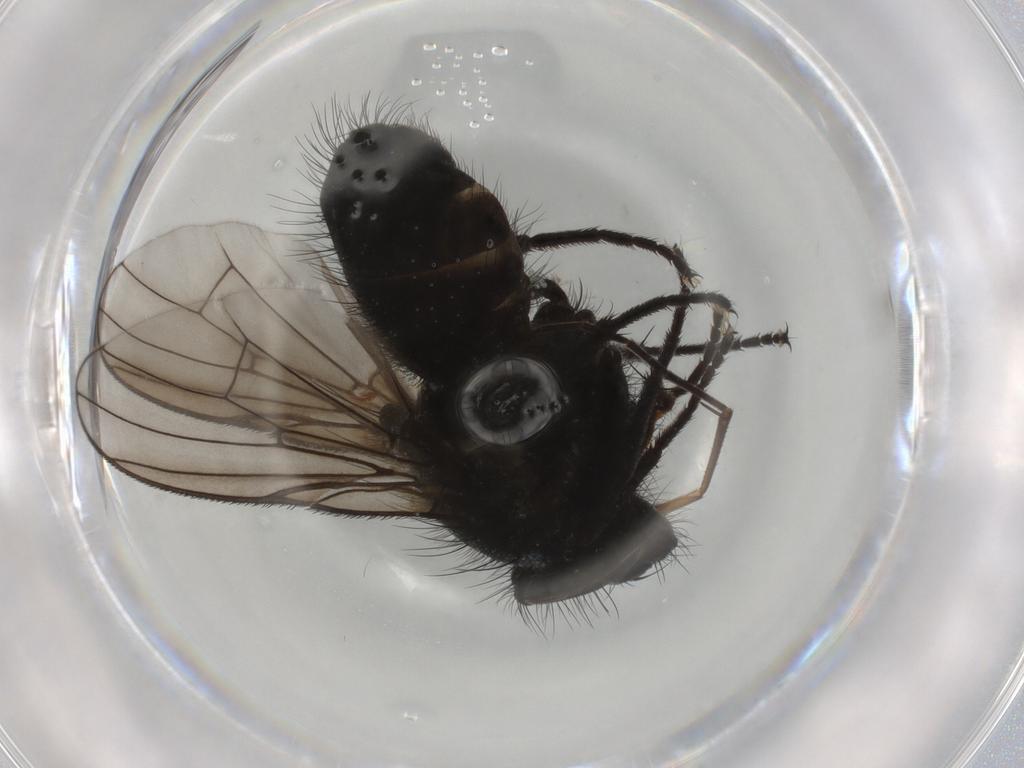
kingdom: Animalia
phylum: Arthropoda
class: Insecta
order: Diptera
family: Muscidae
